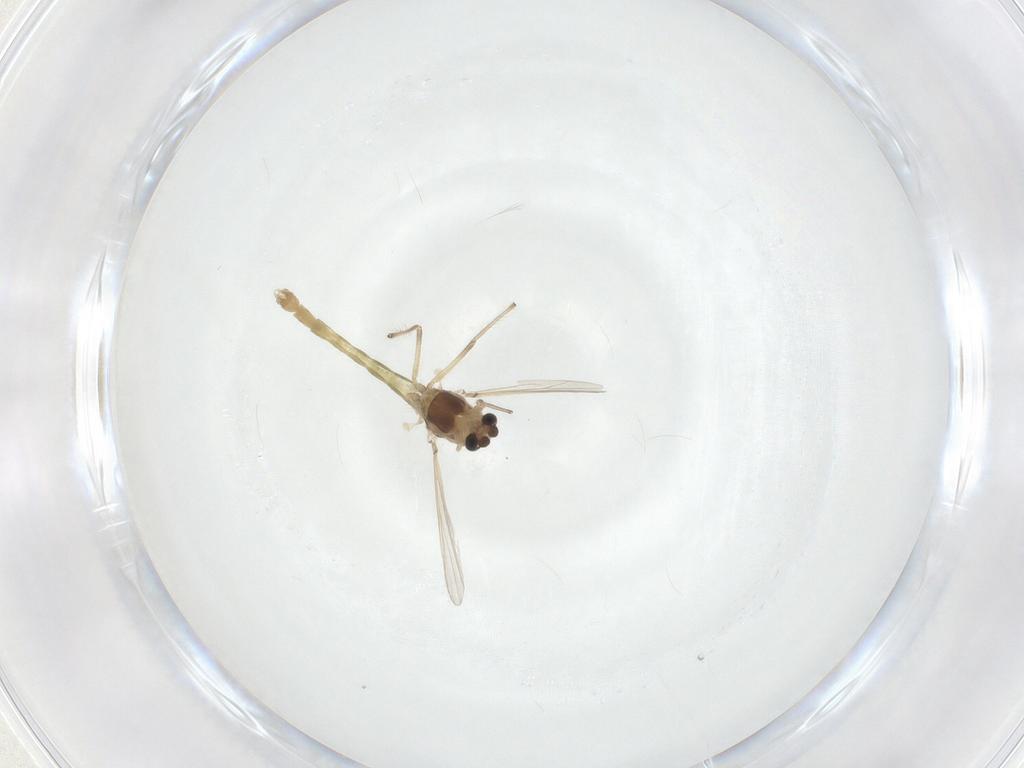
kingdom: Animalia
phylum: Arthropoda
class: Insecta
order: Diptera
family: Chironomidae
